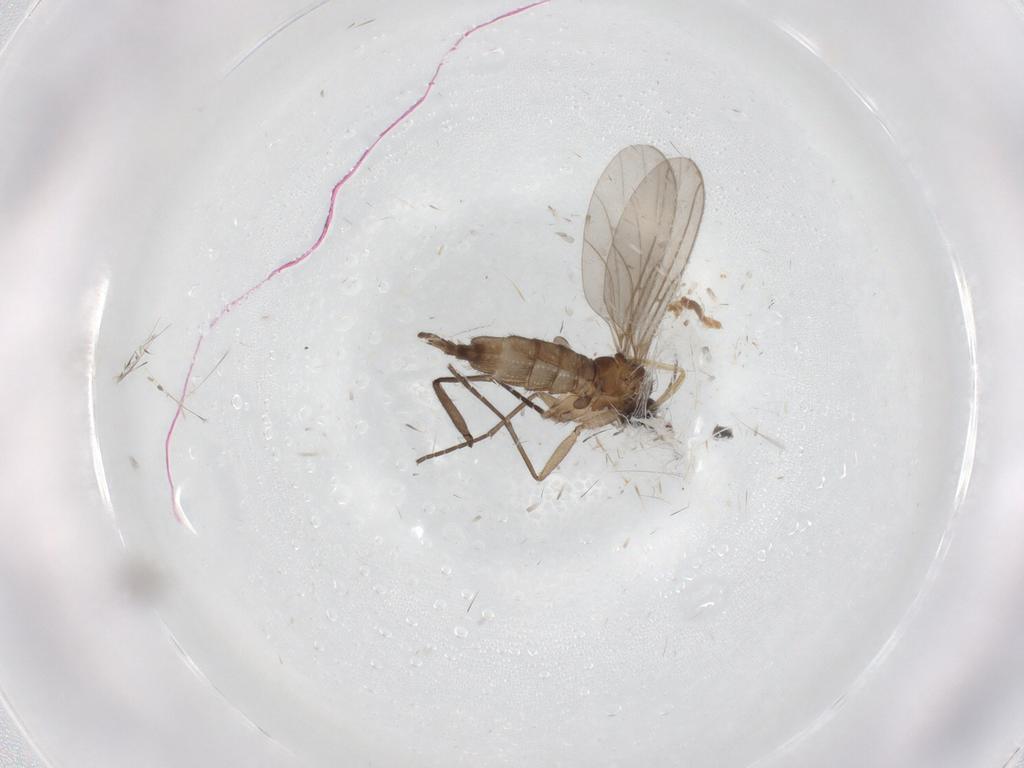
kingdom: Animalia
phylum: Arthropoda
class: Insecta
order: Diptera
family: Sciaridae
